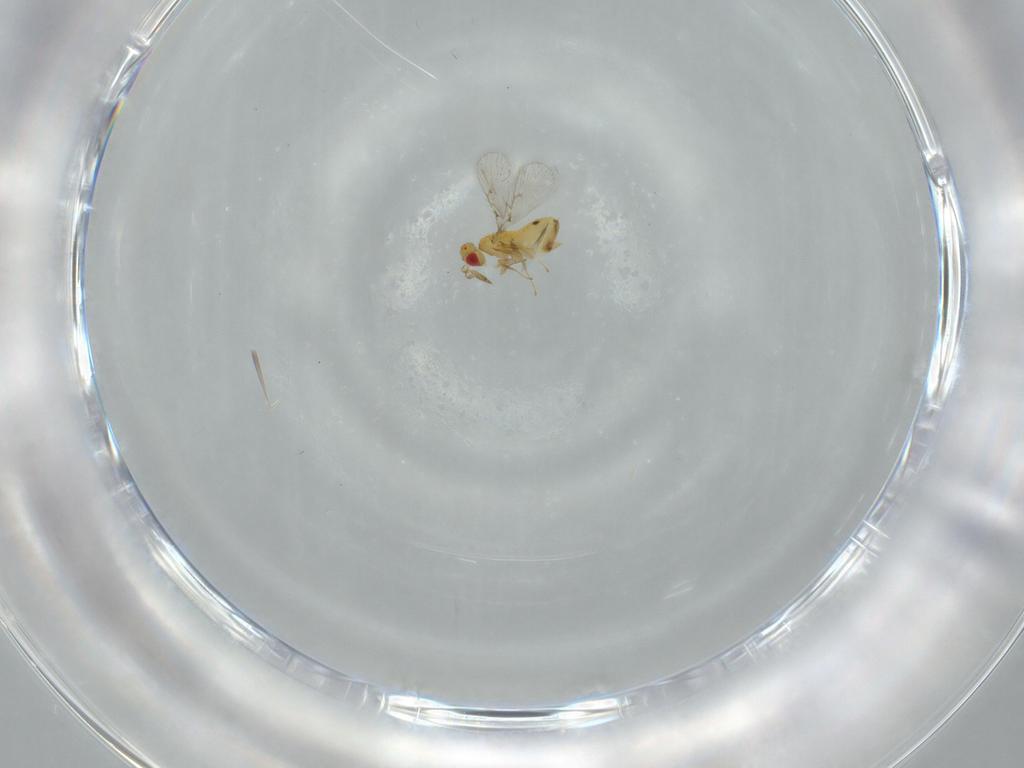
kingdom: Animalia
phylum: Arthropoda
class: Insecta
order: Hymenoptera
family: Trichogrammatidae
